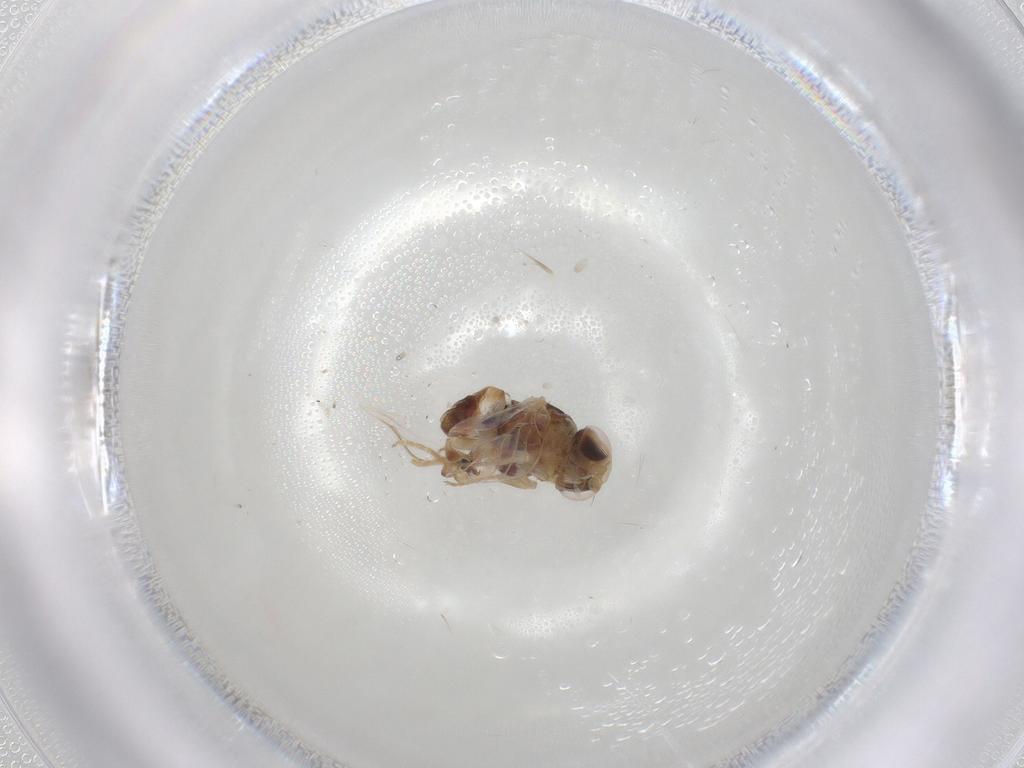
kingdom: Animalia
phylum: Arthropoda
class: Insecta
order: Diptera
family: Chloropidae
